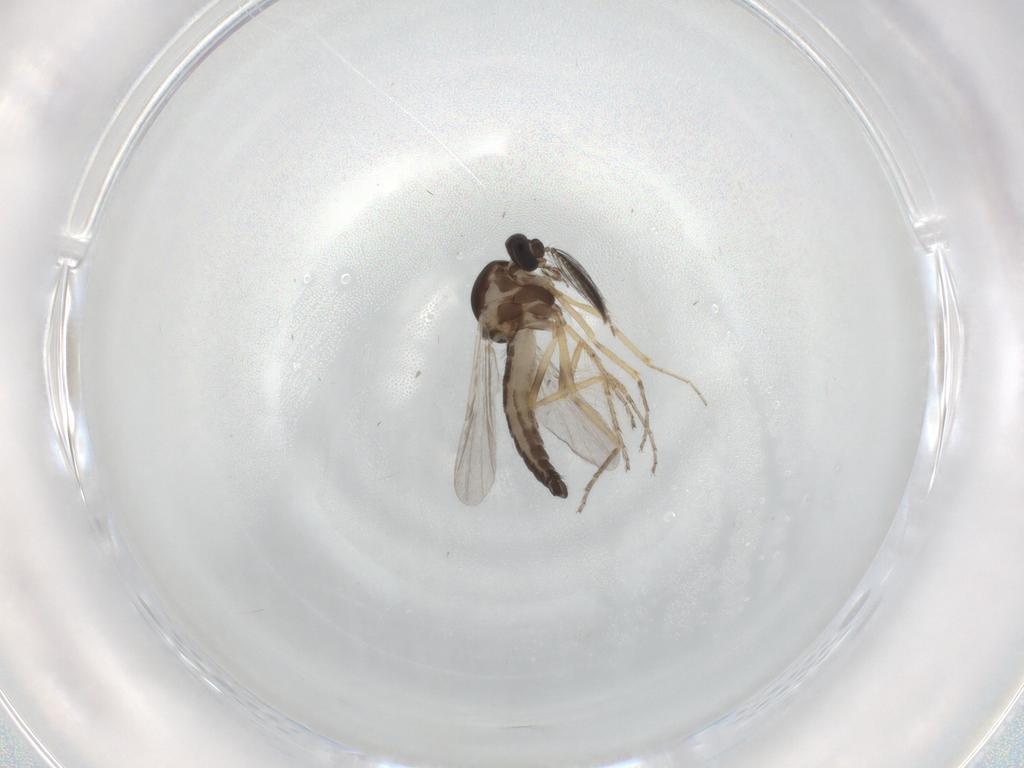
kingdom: Animalia
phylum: Arthropoda
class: Insecta
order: Diptera
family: Ceratopogonidae
